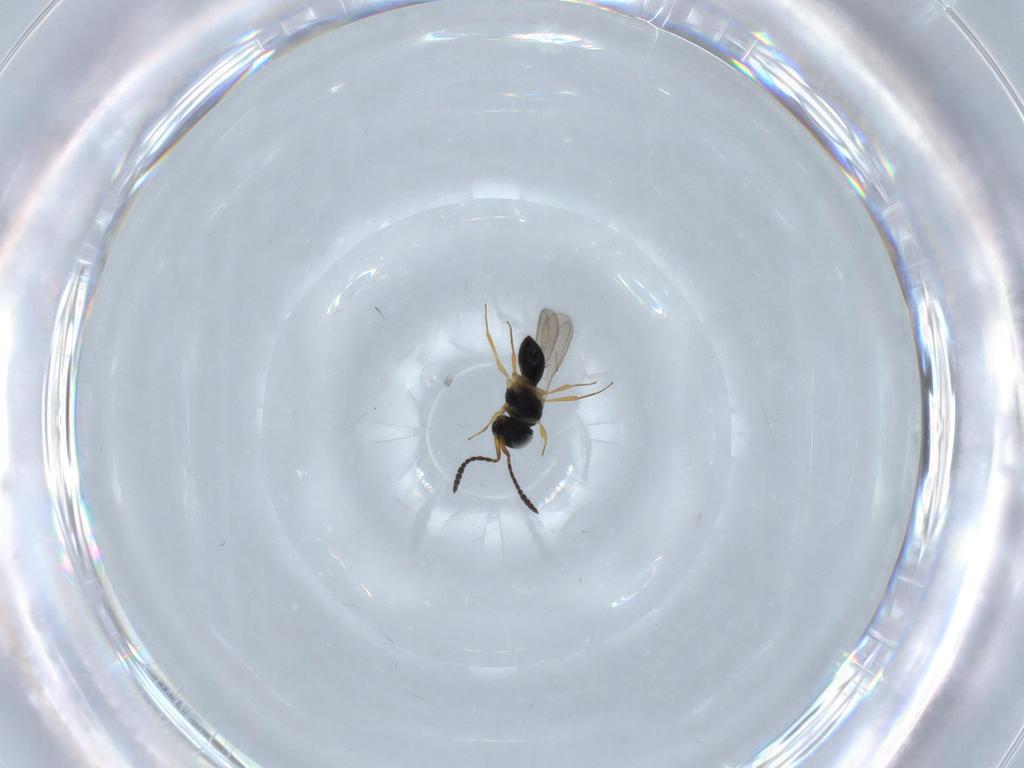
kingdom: Animalia
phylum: Arthropoda
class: Insecta
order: Hymenoptera
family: Scelionidae
